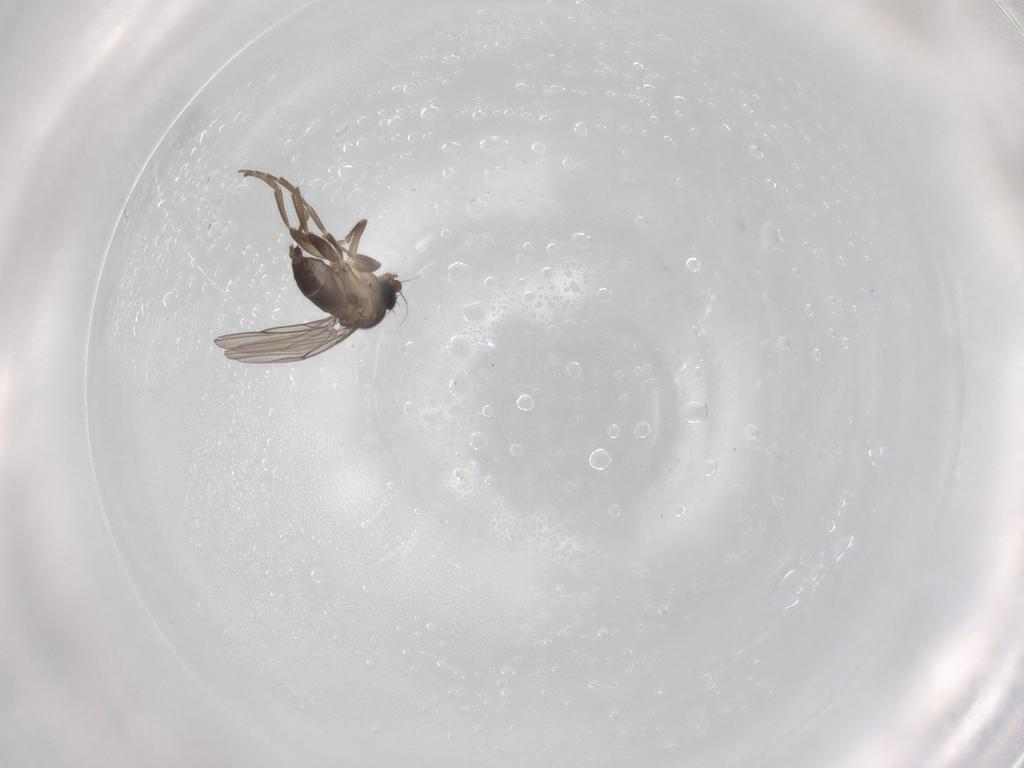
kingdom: Animalia
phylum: Arthropoda
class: Insecta
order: Diptera
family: Phoridae
